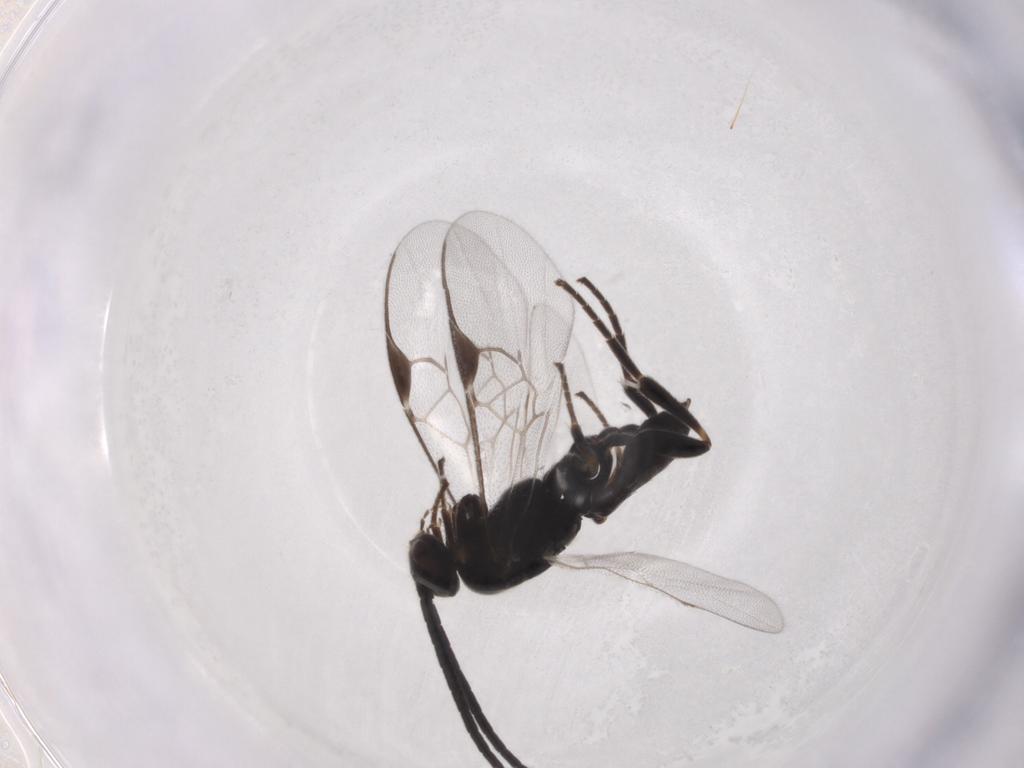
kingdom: Animalia
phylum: Arthropoda
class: Insecta
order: Hymenoptera
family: Braconidae
